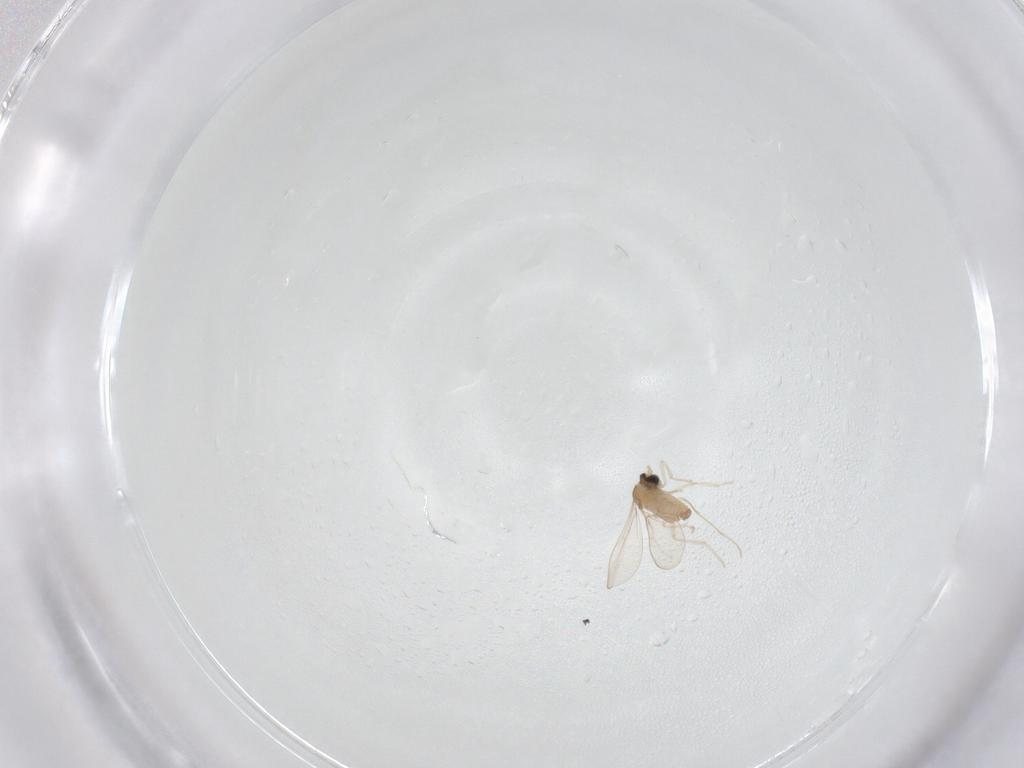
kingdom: Animalia
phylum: Arthropoda
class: Insecta
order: Diptera
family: Cecidomyiidae
